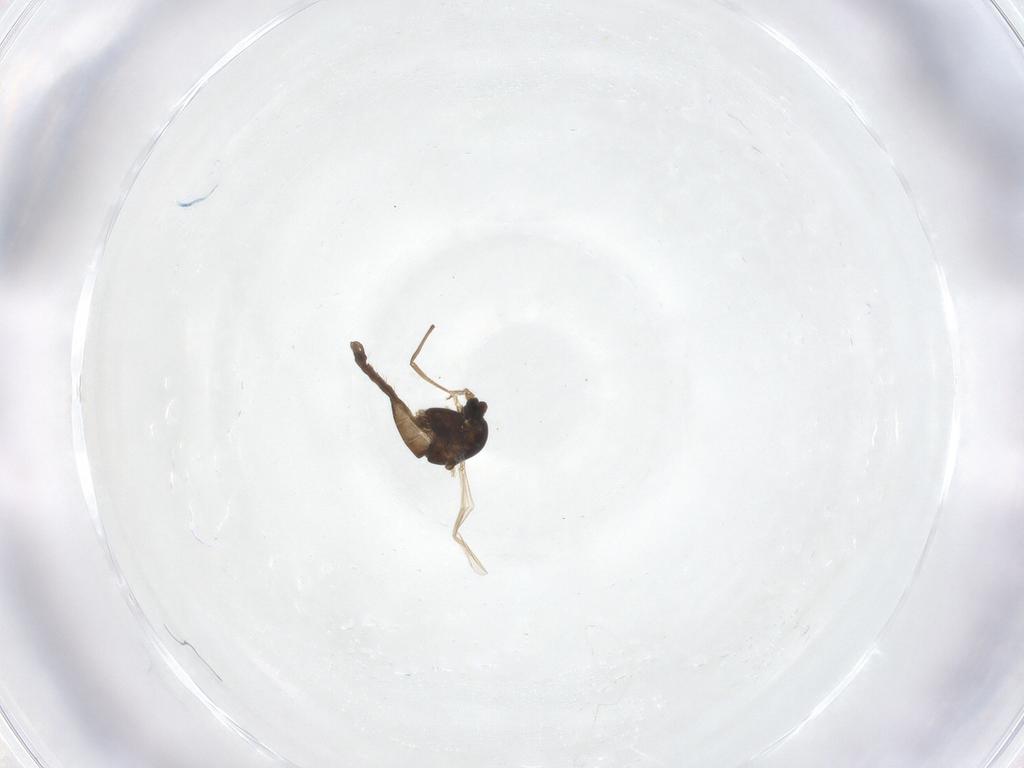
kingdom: Animalia
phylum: Arthropoda
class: Insecta
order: Diptera
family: Chironomidae
